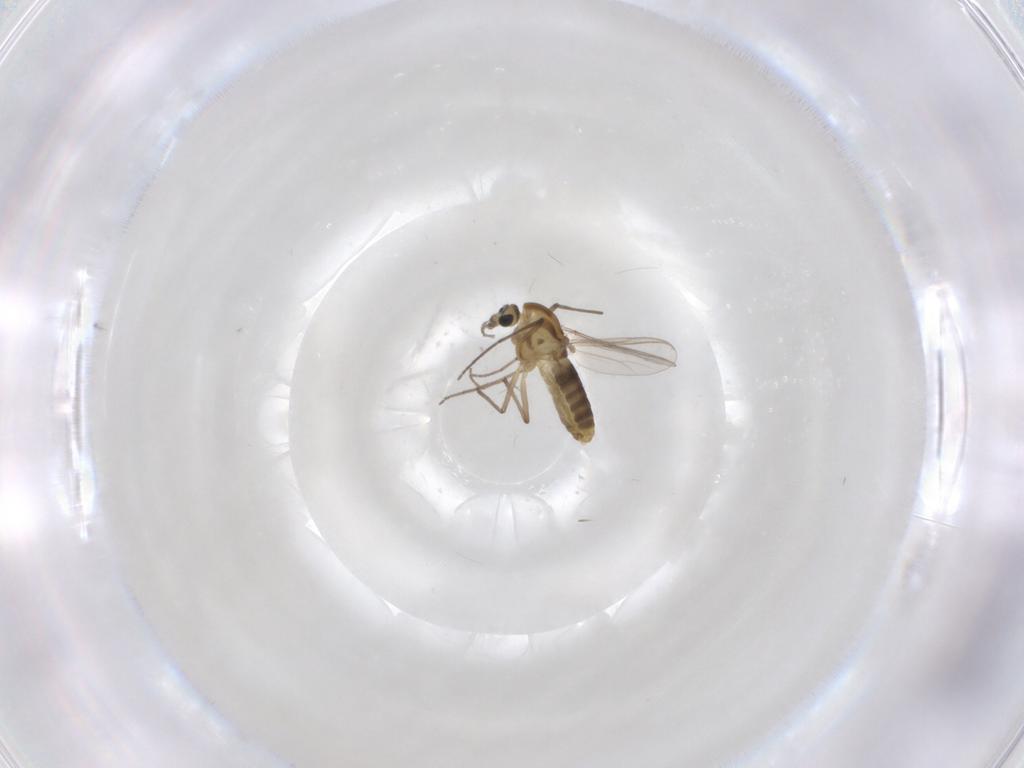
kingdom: Animalia
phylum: Arthropoda
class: Insecta
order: Diptera
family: Chironomidae
